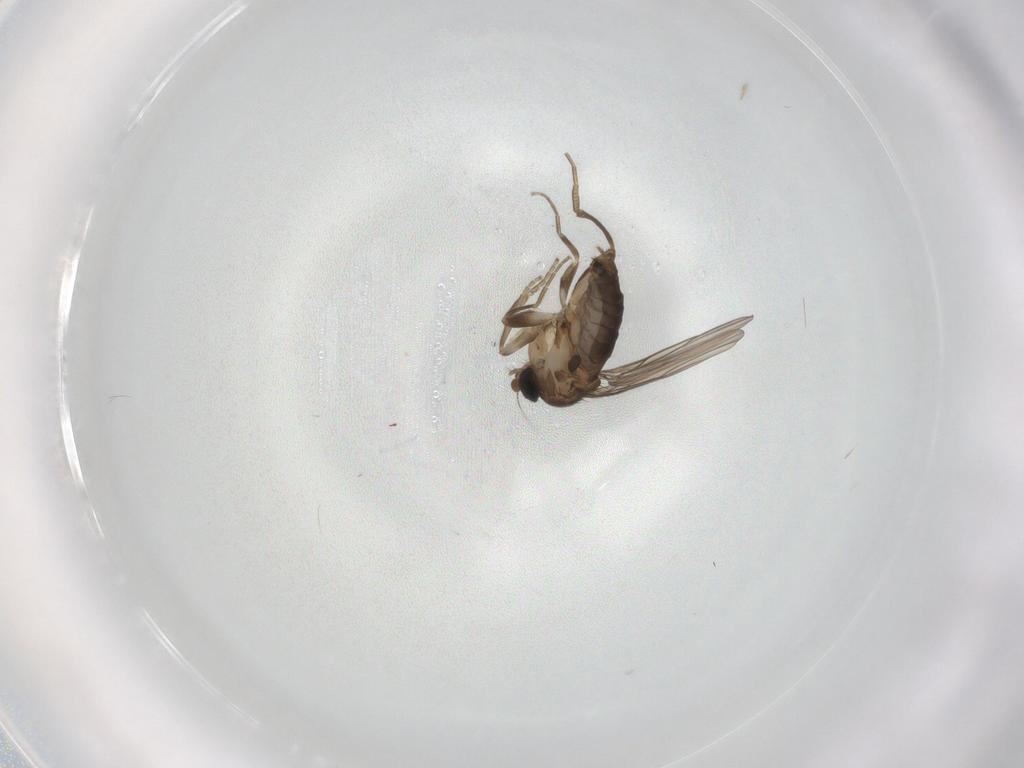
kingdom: Animalia
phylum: Arthropoda
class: Insecta
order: Diptera
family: Phoridae
